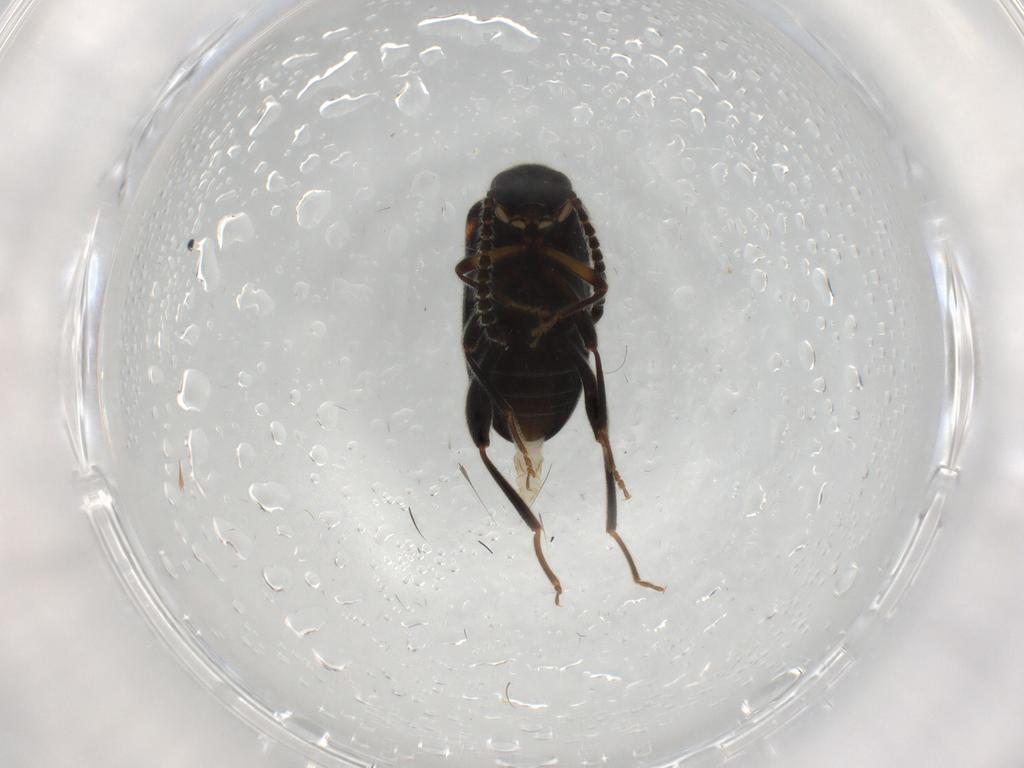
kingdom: Animalia
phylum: Arthropoda
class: Insecta
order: Coleoptera
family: Aderidae
